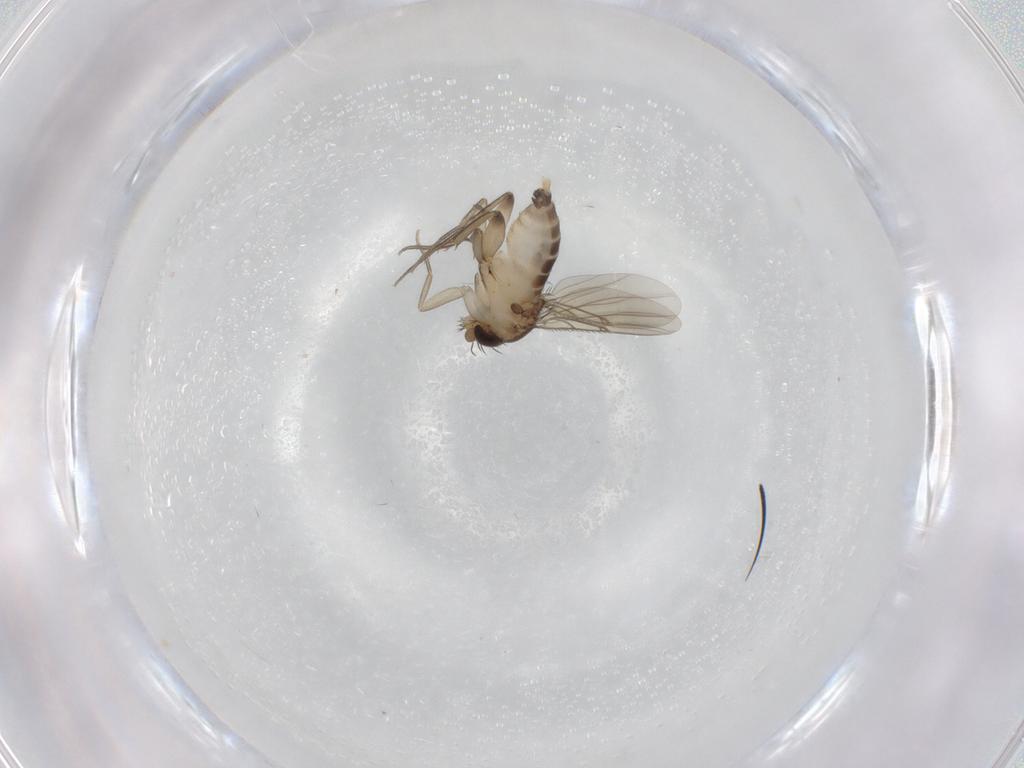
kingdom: Animalia
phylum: Arthropoda
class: Insecta
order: Diptera
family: Phoridae
